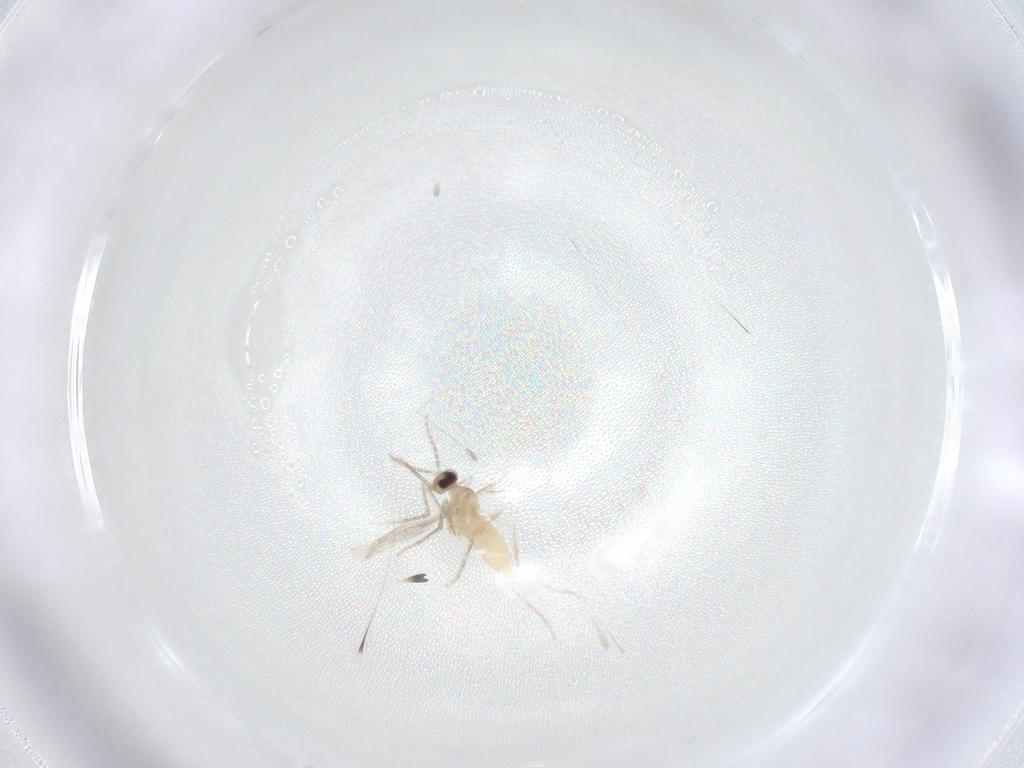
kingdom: Animalia
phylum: Arthropoda
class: Insecta
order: Diptera
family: Cecidomyiidae
